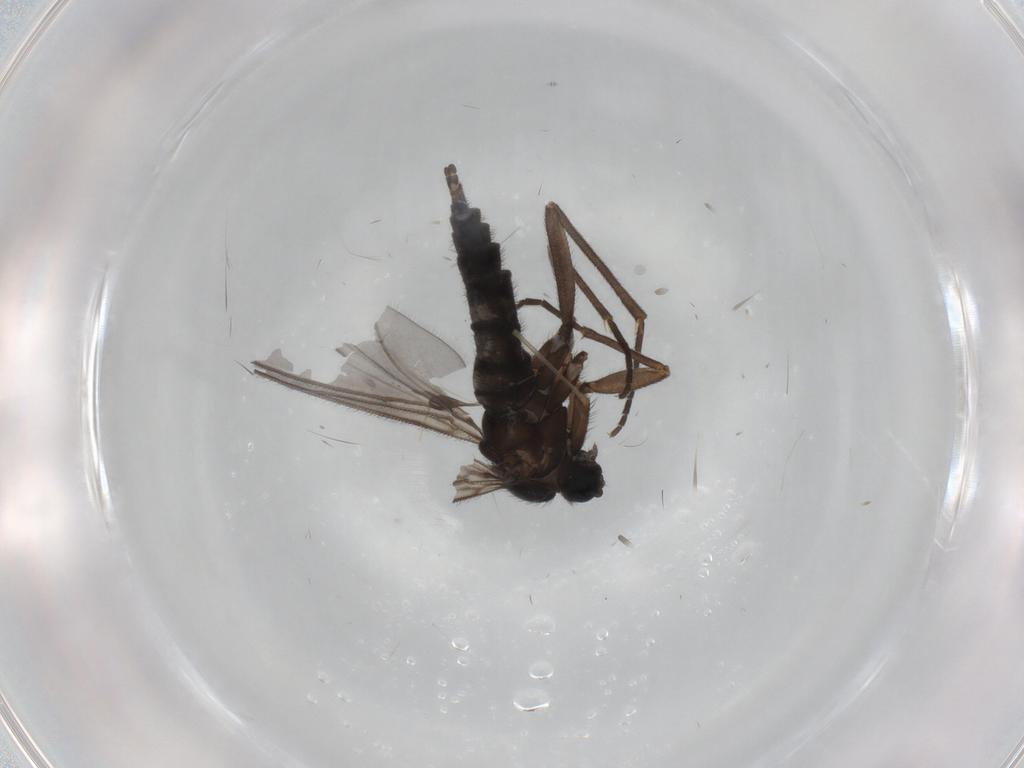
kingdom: Animalia
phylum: Arthropoda
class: Insecta
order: Diptera
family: Sciaridae
